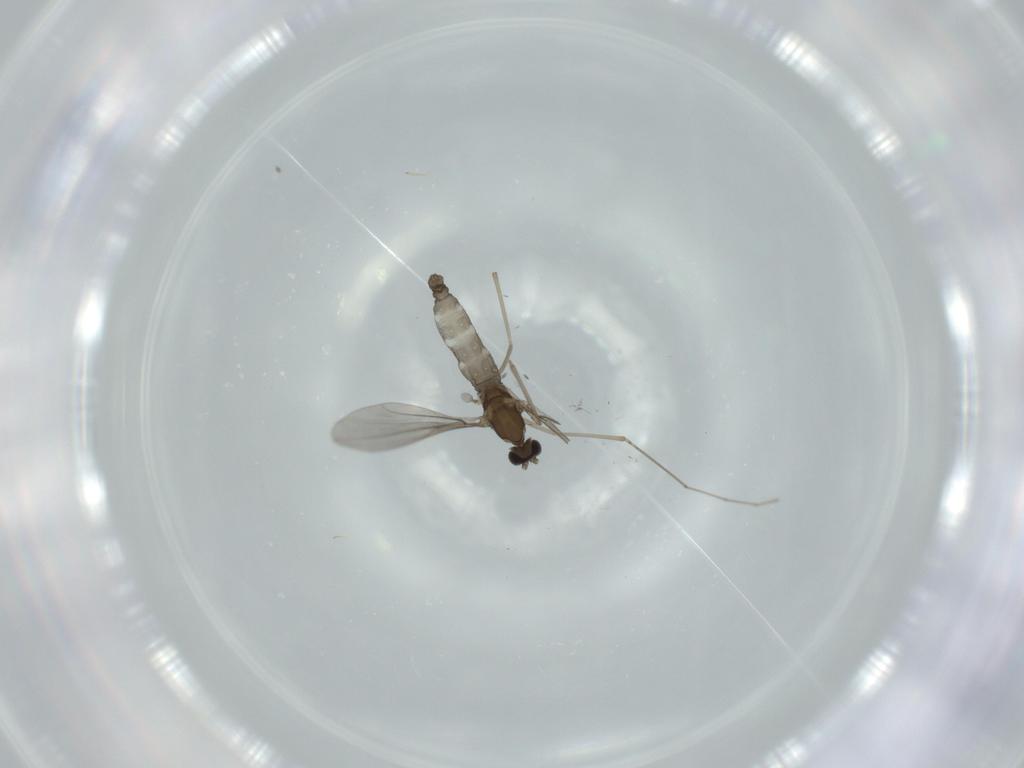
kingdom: Animalia
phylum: Arthropoda
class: Insecta
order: Diptera
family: Cecidomyiidae
